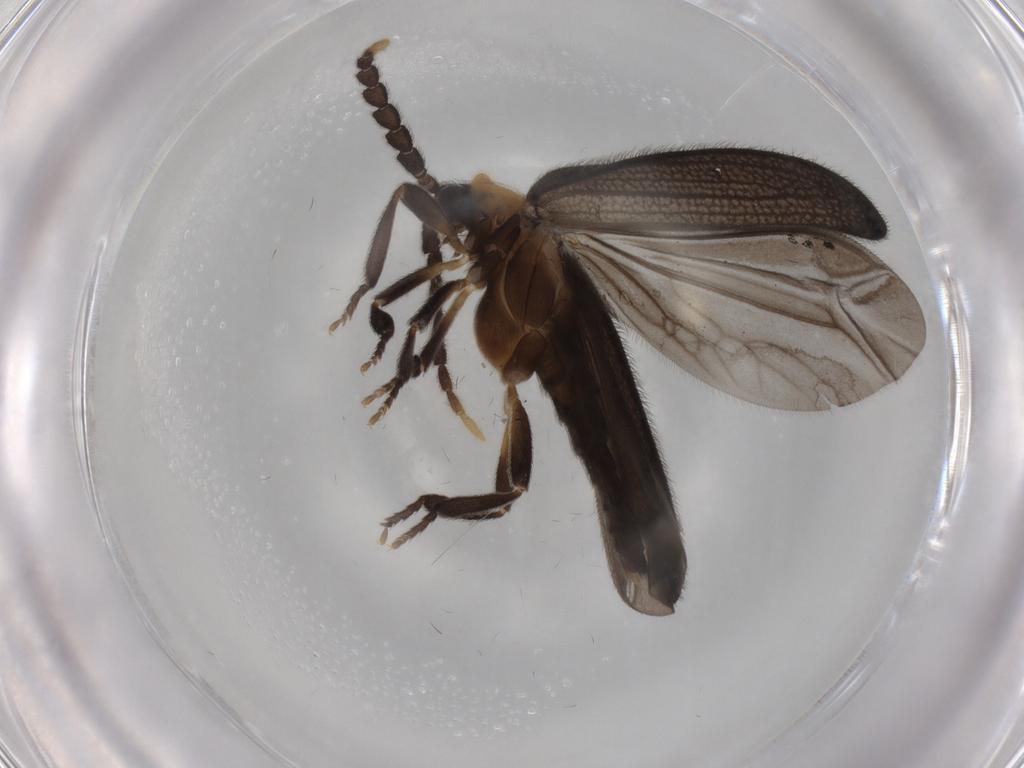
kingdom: Animalia
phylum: Arthropoda
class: Insecta
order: Coleoptera
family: Lycidae
